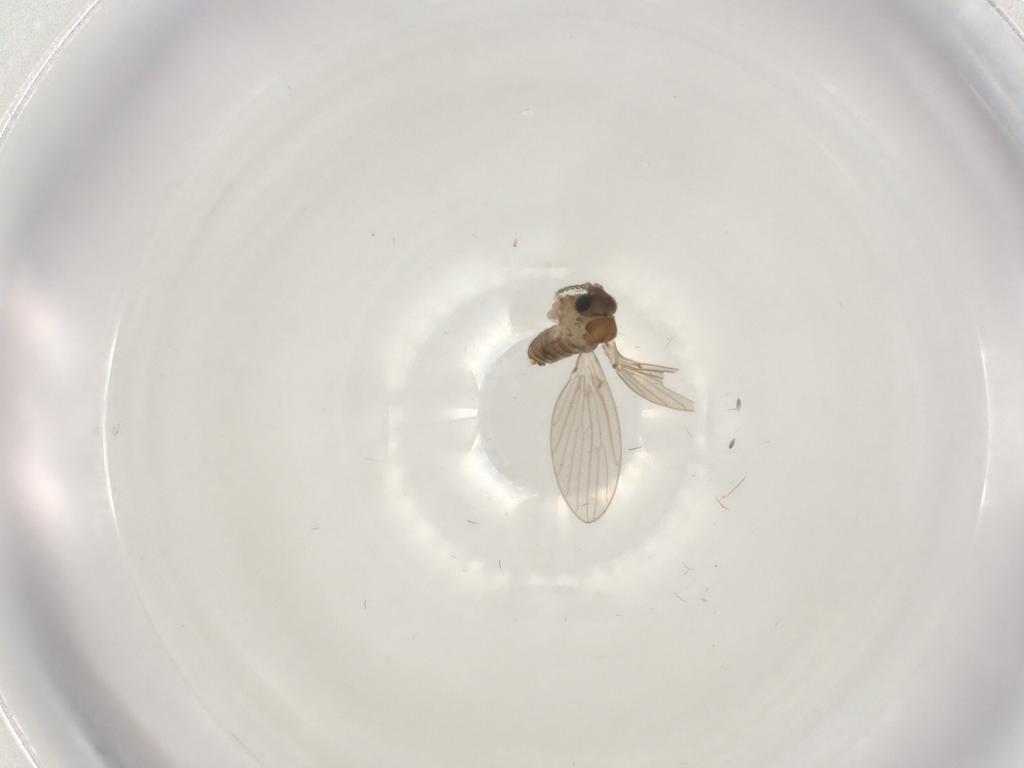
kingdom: Animalia
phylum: Arthropoda
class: Insecta
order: Diptera
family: Psychodidae
